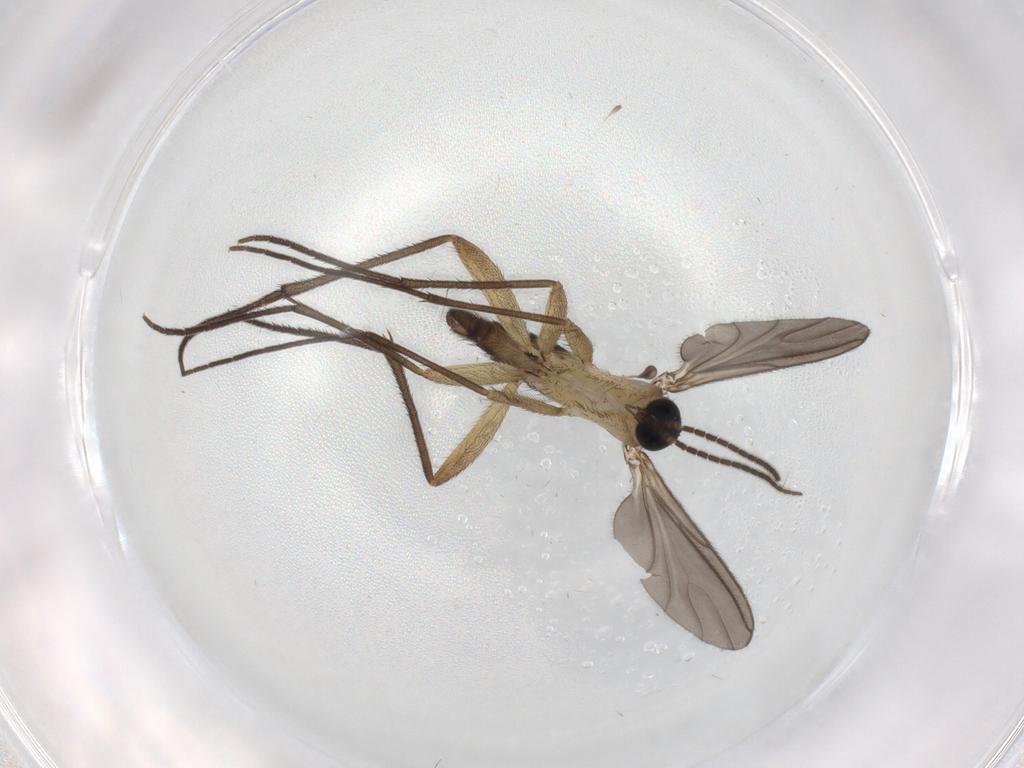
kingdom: Animalia
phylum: Arthropoda
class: Insecta
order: Diptera
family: Sciaridae
